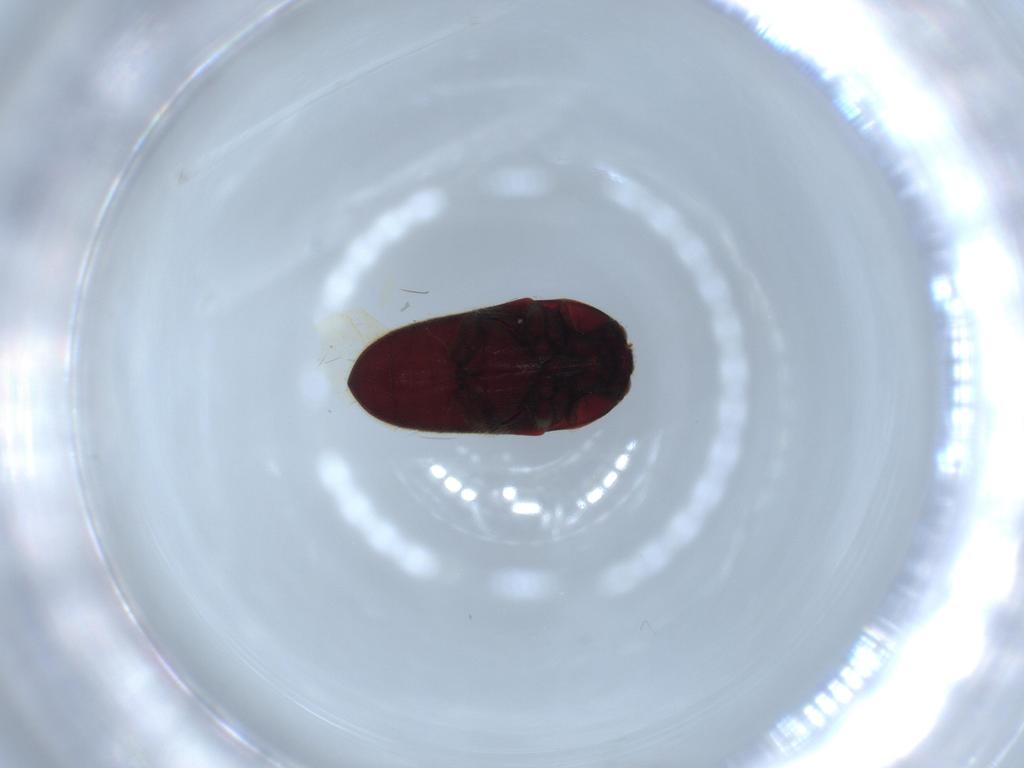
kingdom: Animalia
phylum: Arthropoda
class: Insecta
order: Coleoptera
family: Throscidae
